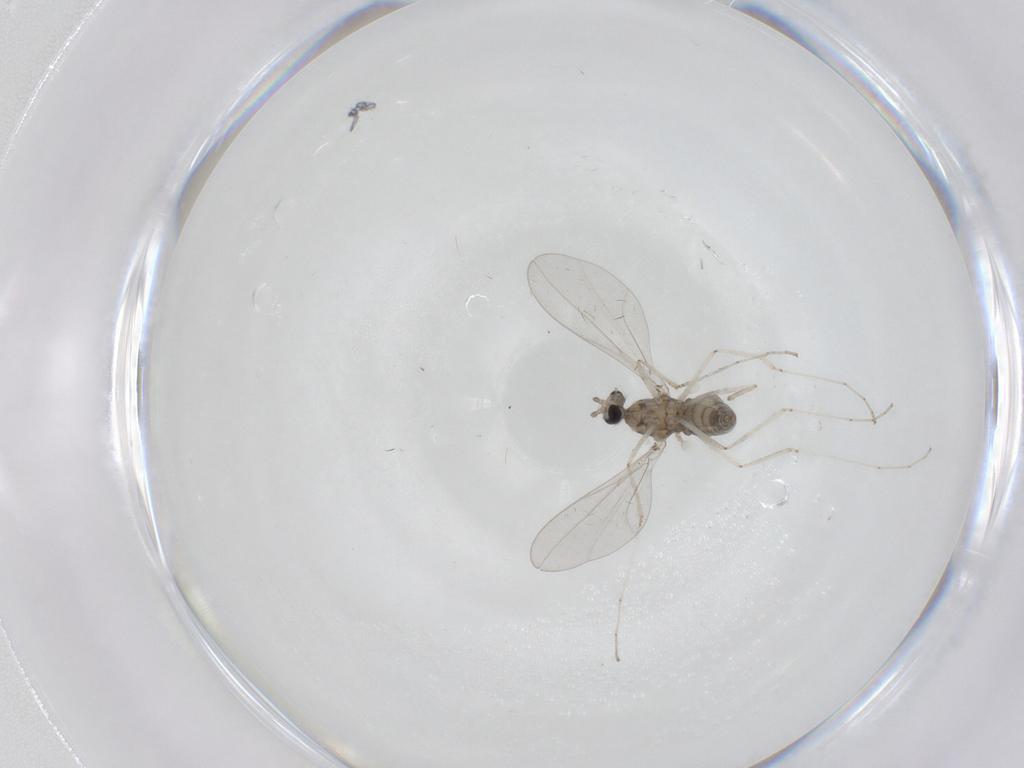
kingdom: Animalia
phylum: Arthropoda
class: Insecta
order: Diptera
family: Cecidomyiidae
